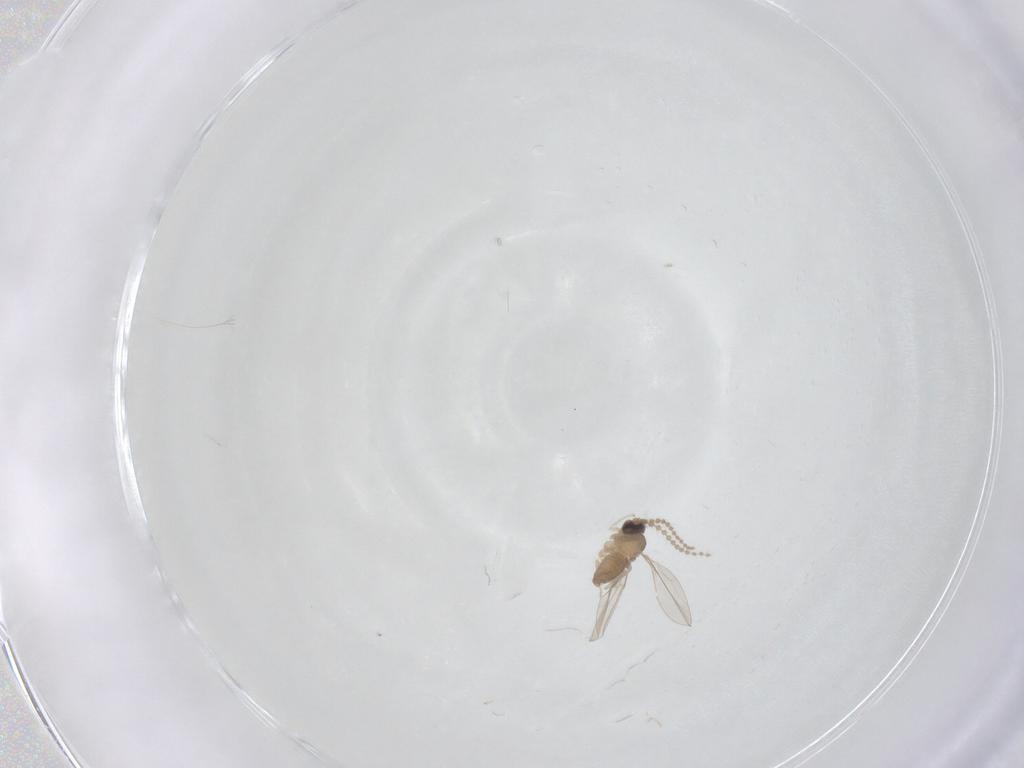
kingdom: Animalia
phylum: Arthropoda
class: Insecta
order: Diptera
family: Cecidomyiidae
